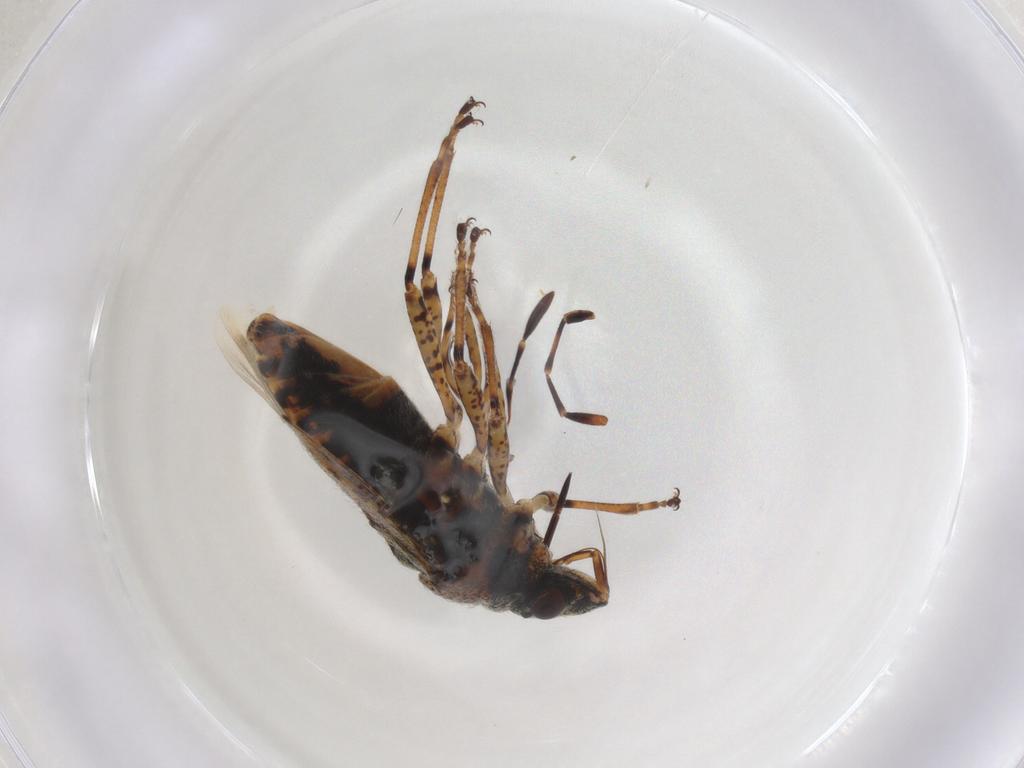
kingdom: Animalia
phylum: Arthropoda
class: Insecta
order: Hemiptera
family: Lygaeidae
